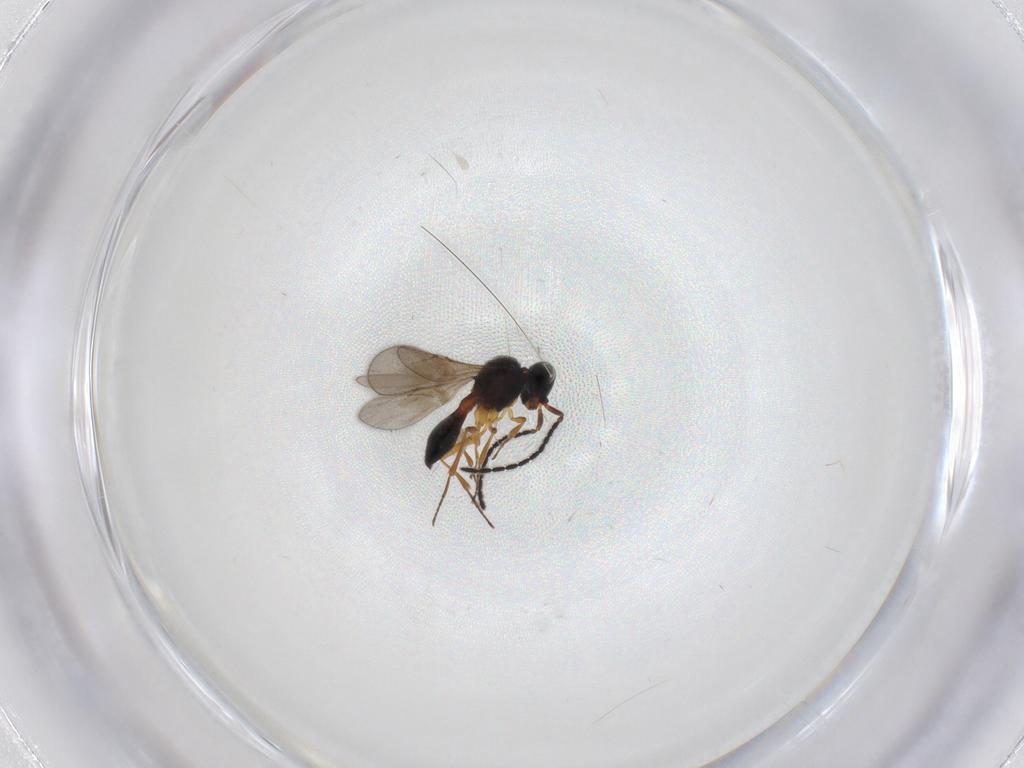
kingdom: Animalia
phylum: Arthropoda
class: Insecta
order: Hymenoptera
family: Scelionidae
